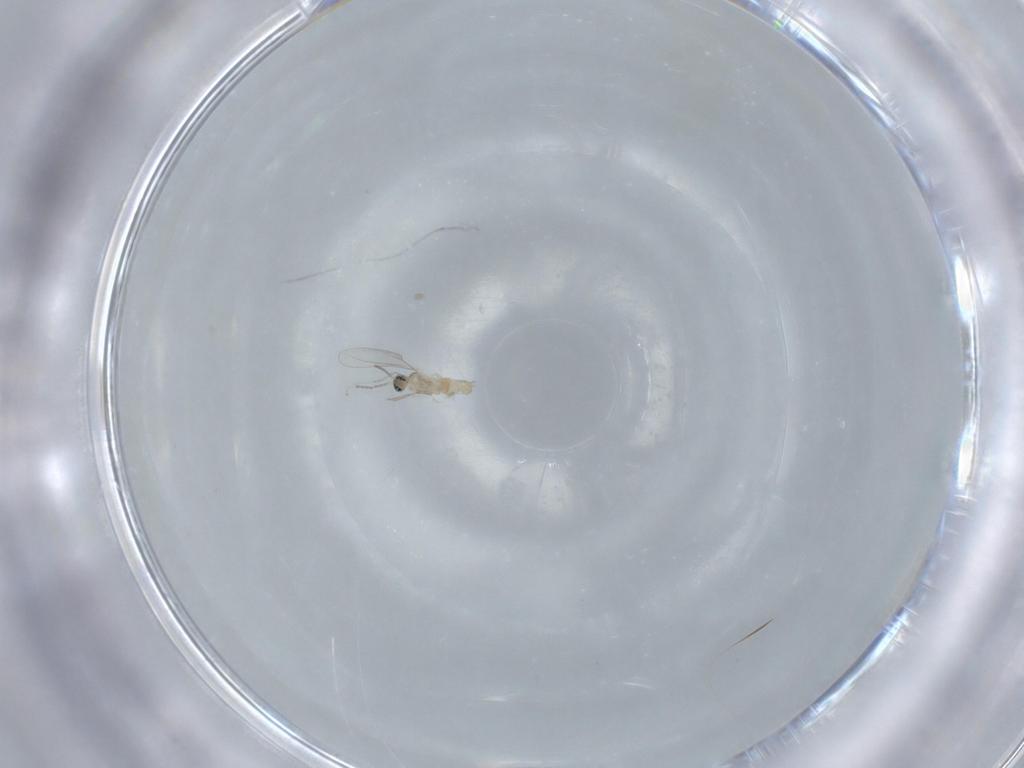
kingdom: Animalia
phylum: Arthropoda
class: Insecta
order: Diptera
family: Cecidomyiidae
